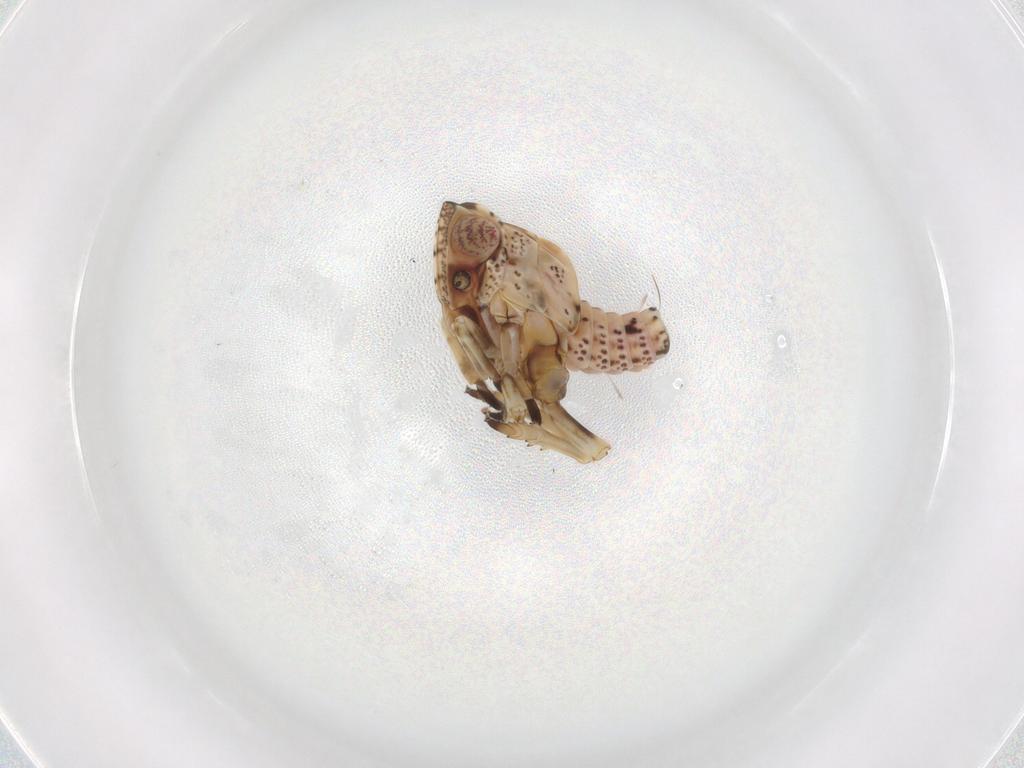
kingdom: Animalia
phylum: Arthropoda
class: Insecta
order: Hemiptera
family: Tropiduchidae
